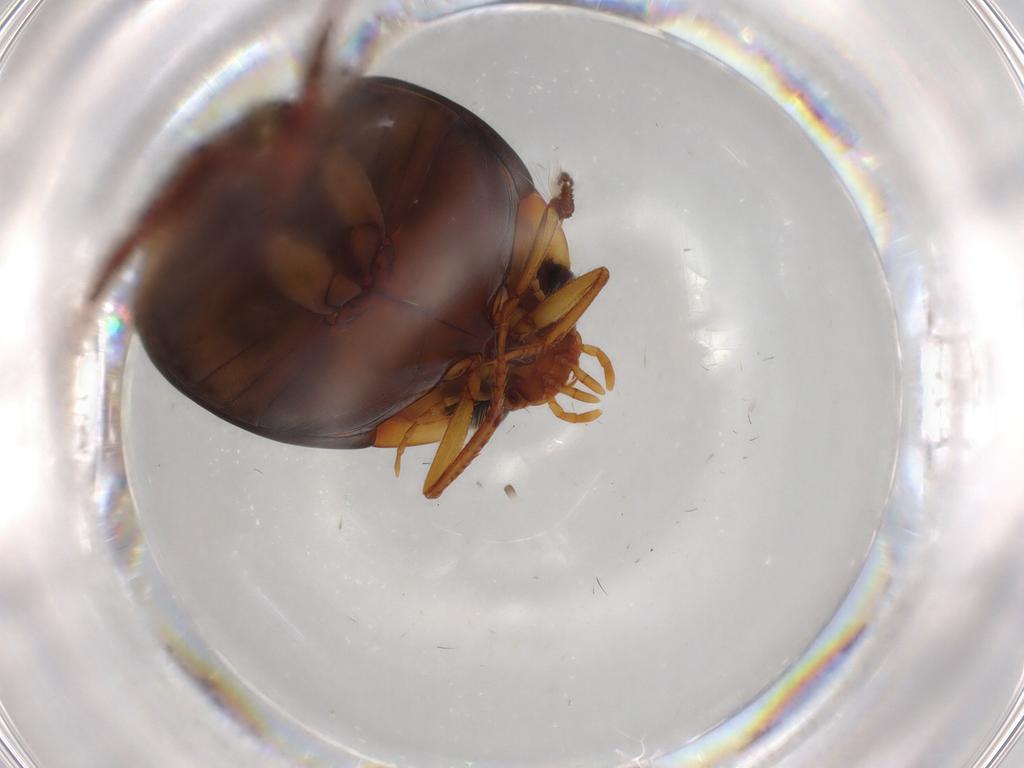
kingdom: Animalia
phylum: Arthropoda
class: Insecta
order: Coleoptera
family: Dytiscidae
